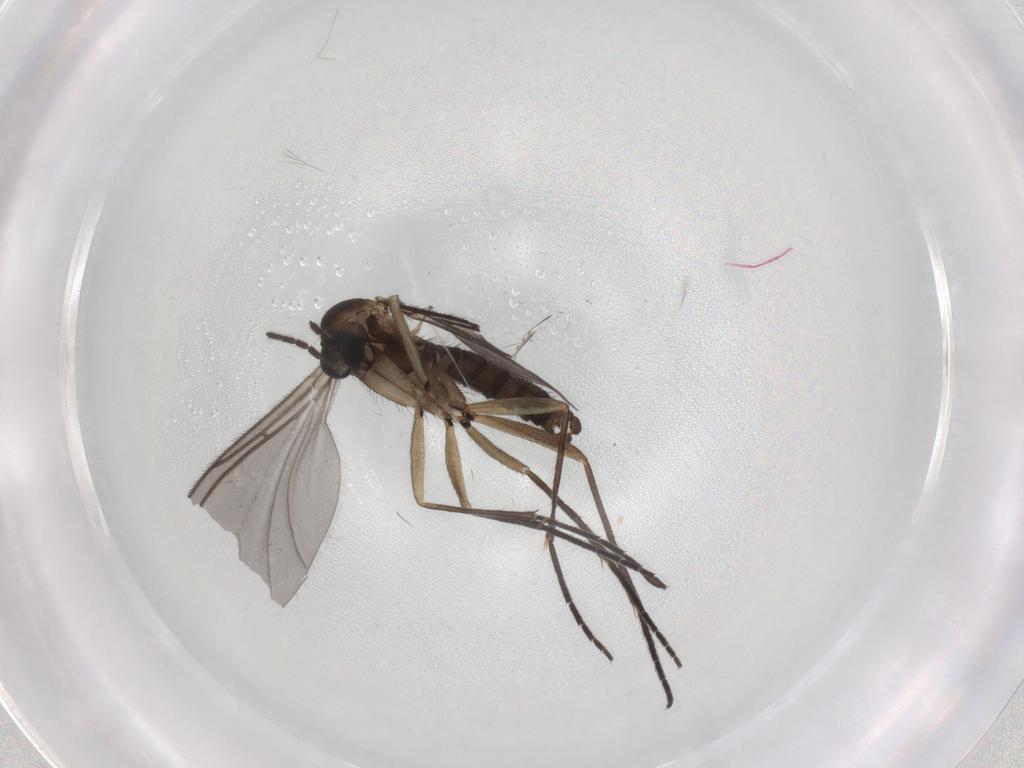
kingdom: Animalia
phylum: Arthropoda
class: Insecta
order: Diptera
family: Sciaridae
